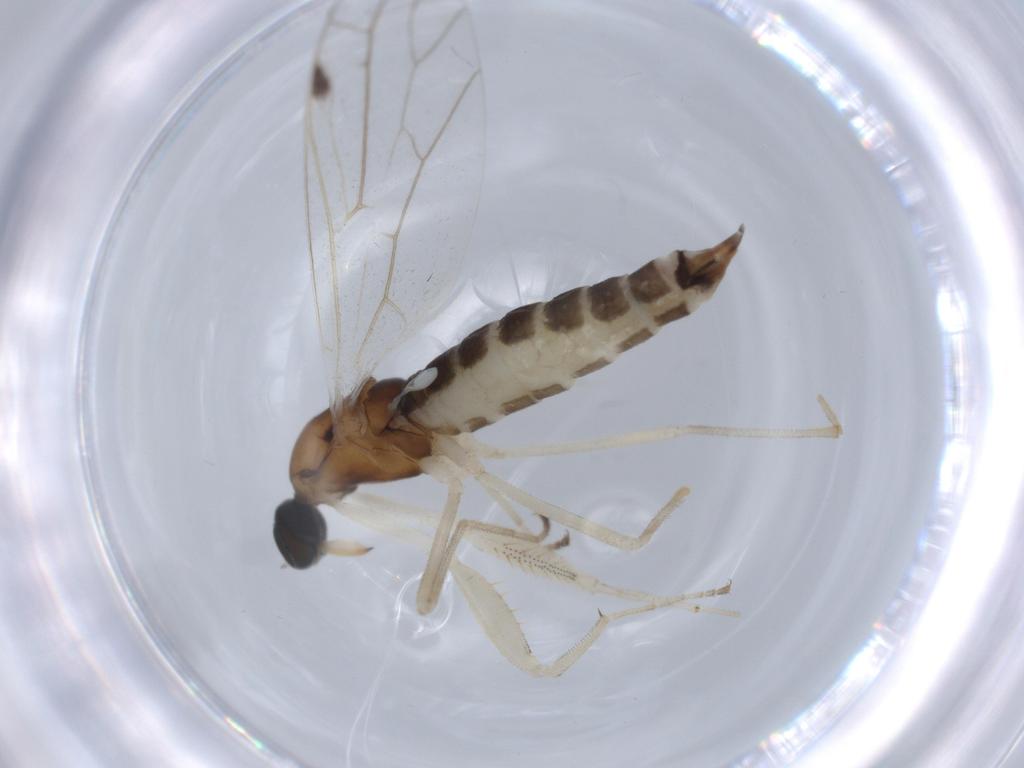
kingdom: Animalia
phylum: Arthropoda
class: Insecta
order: Diptera
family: Empididae
